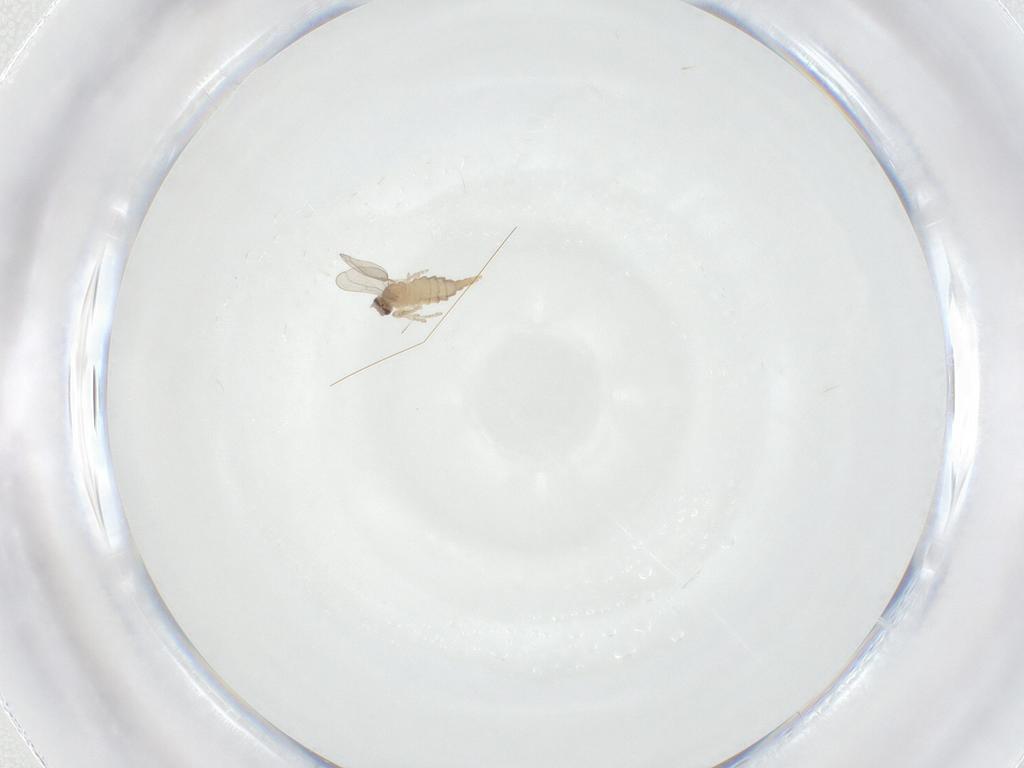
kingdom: Animalia
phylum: Arthropoda
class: Insecta
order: Diptera
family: Cecidomyiidae
